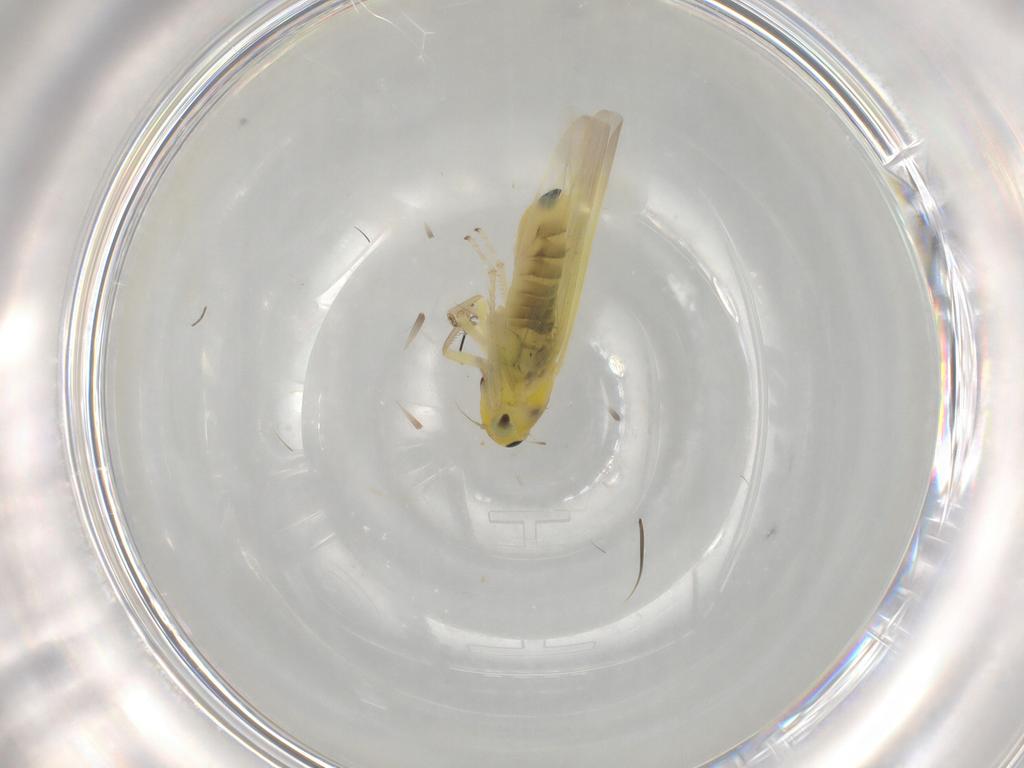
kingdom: Animalia
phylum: Arthropoda
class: Insecta
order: Hemiptera
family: Cicadellidae
